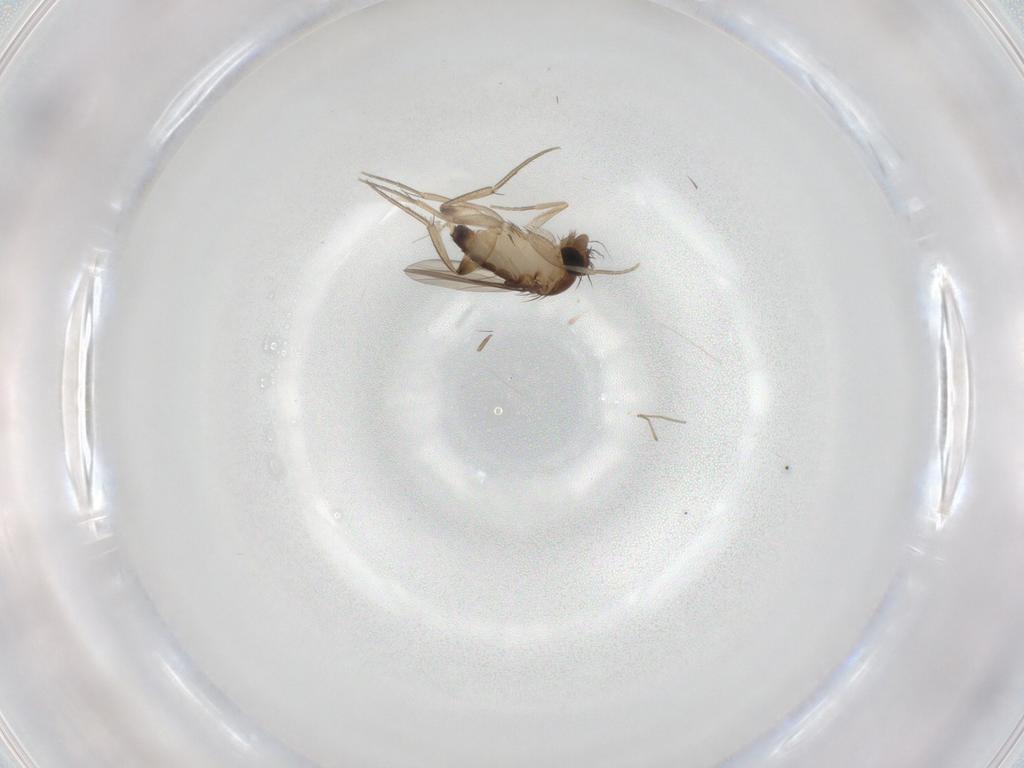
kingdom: Animalia
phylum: Arthropoda
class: Insecta
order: Diptera
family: Phoridae
